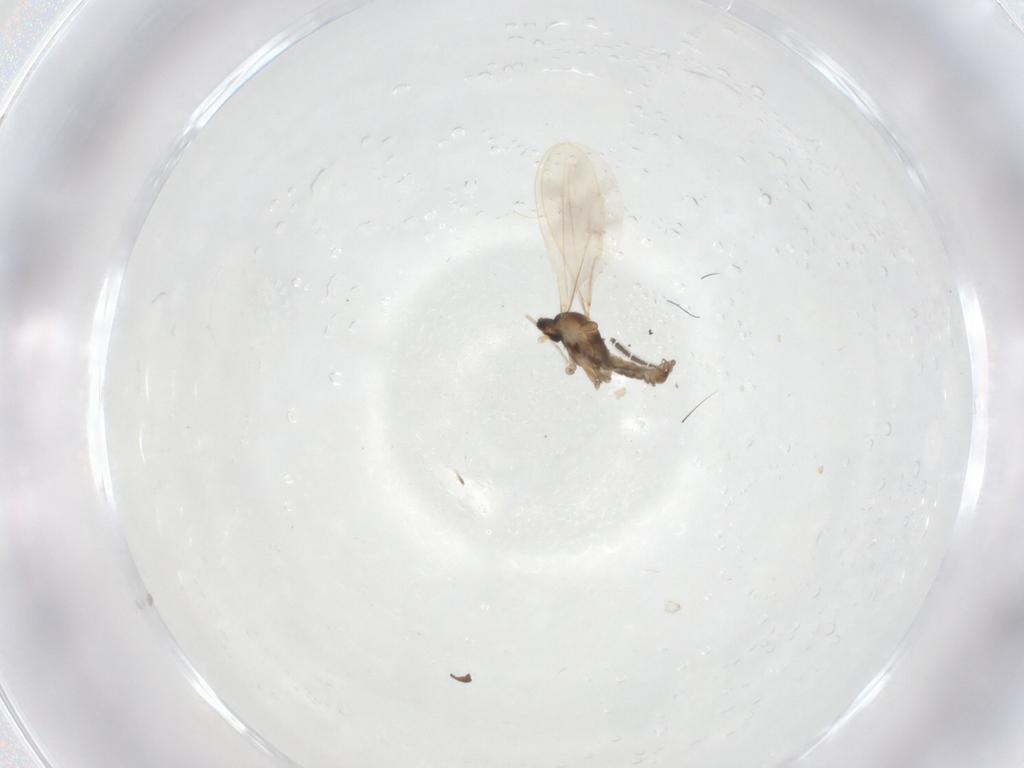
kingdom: Animalia
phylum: Arthropoda
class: Insecta
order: Diptera
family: Cecidomyiidae
